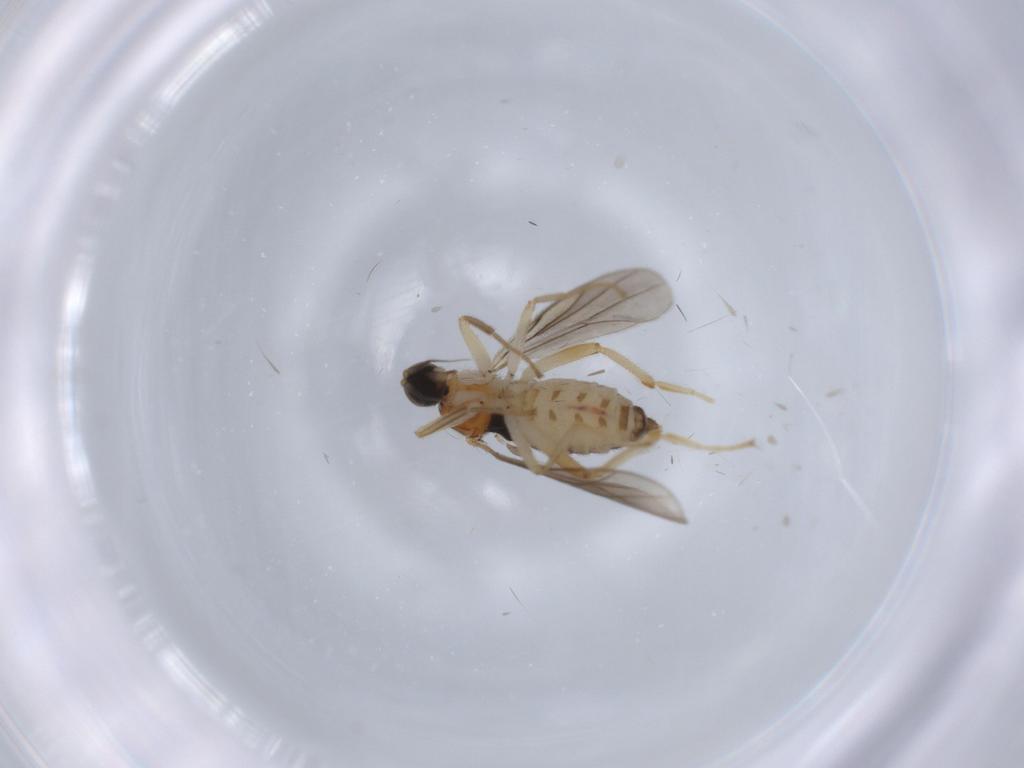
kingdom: Animalia
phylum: Arthropoda
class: Insecta
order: Diptera
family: Hybotidae
